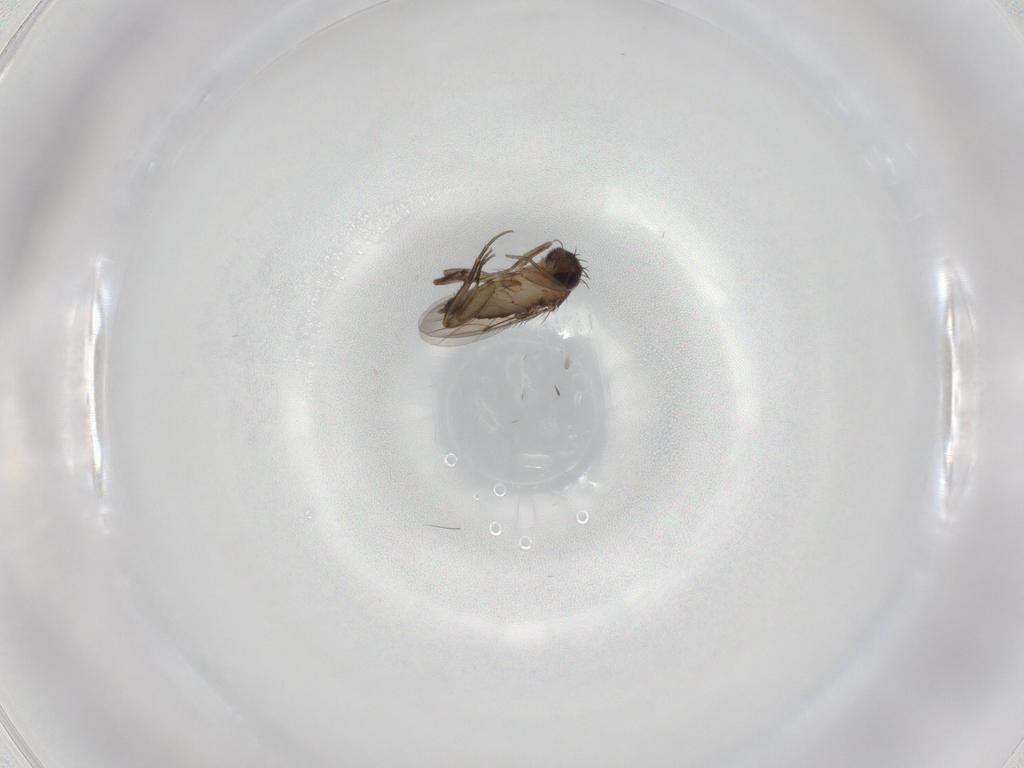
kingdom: Animalia
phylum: Arthropoda
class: Insecta
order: Diptera
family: Phoridae
